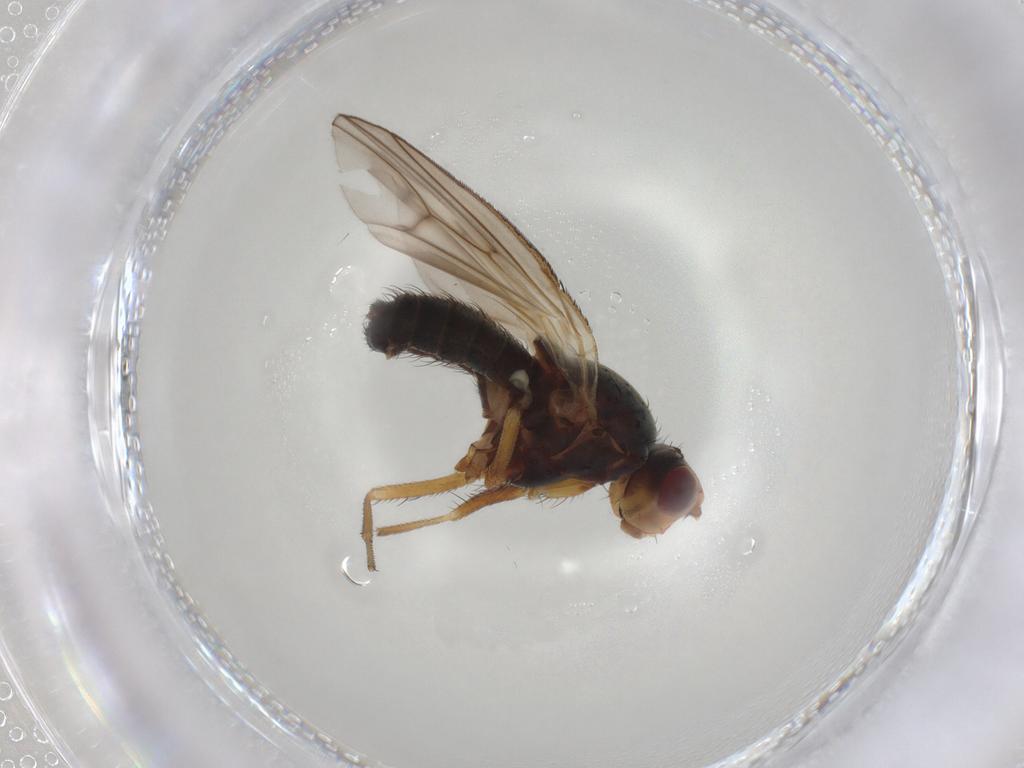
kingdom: Animalia
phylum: Arthropoda
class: Insecta
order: Diptera
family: Heleomyzidae
